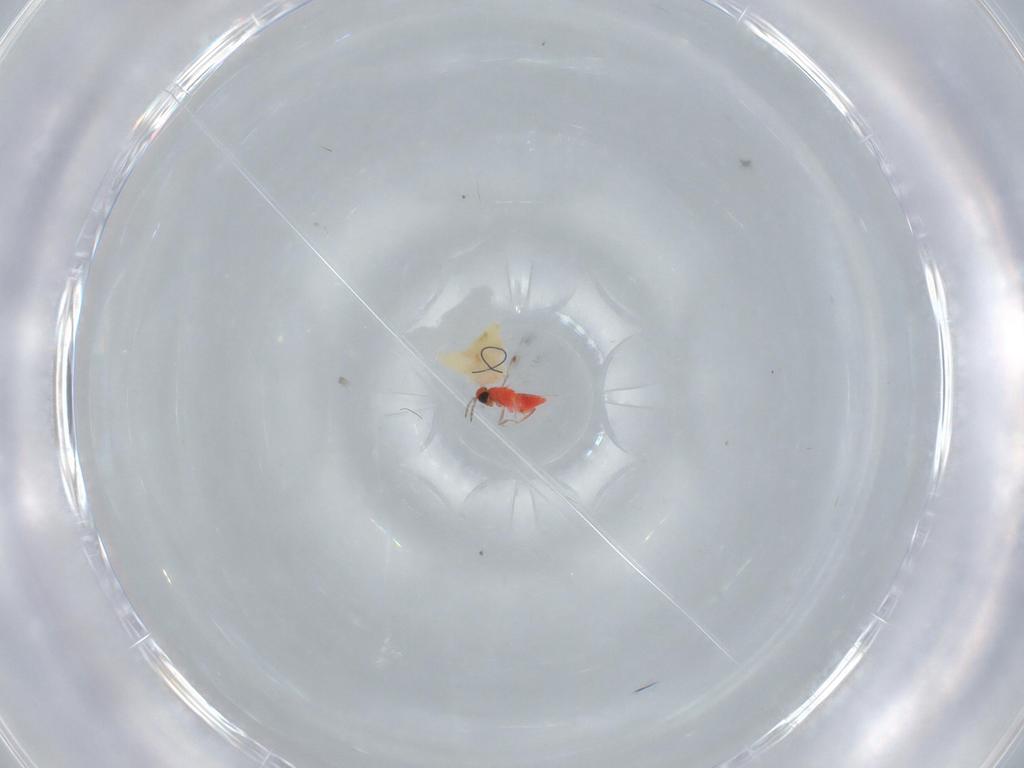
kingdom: Animalia
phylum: Arthropoda
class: Insecta
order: Hymenoptera
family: Trichogrammatidae
